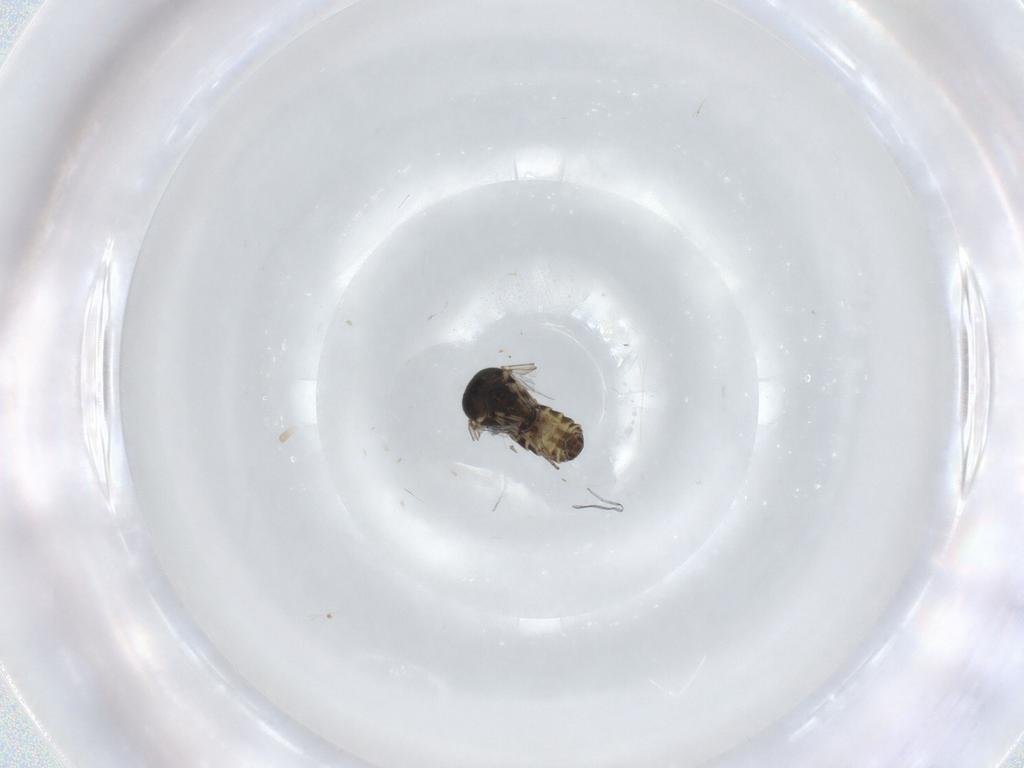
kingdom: Animalia
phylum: Arthropoda
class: Insecta
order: Diptera
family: Ceratopogonidae
